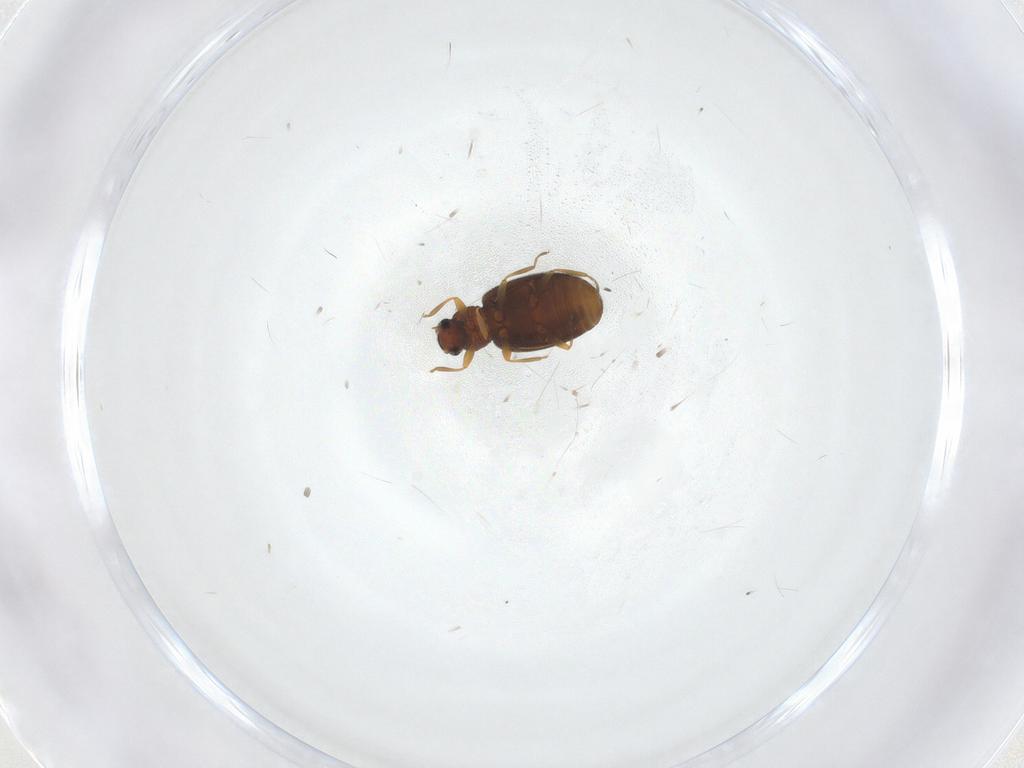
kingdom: Animalia
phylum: Arthropoda
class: Insecta
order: Coleoptera
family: Latridiidae
